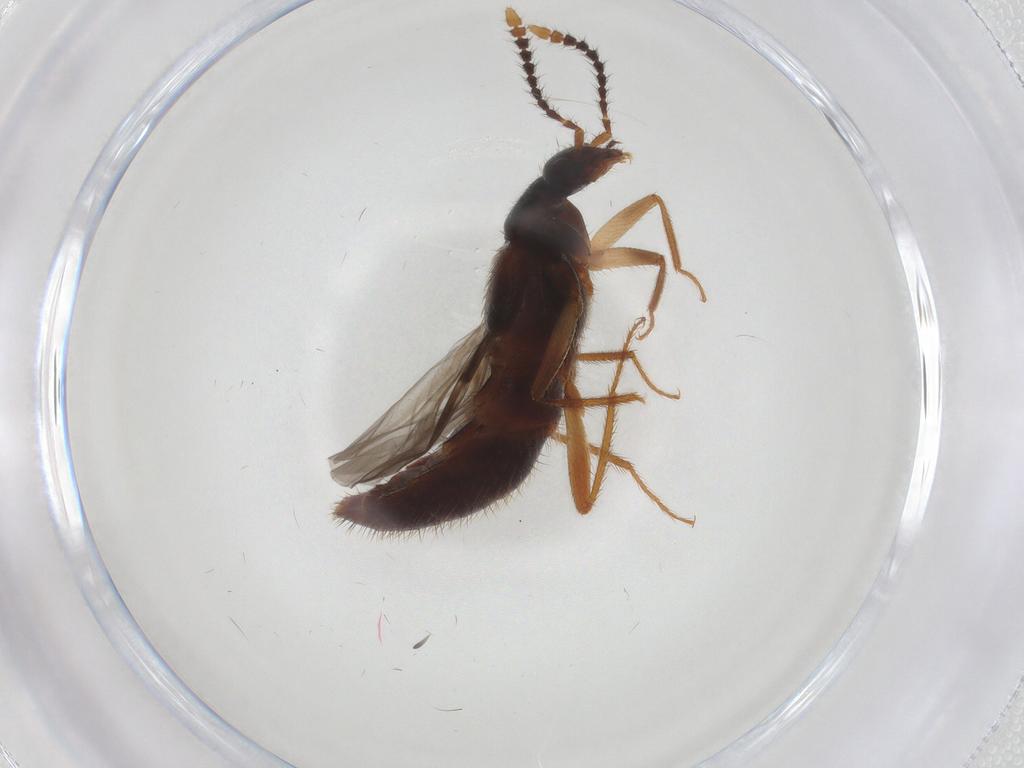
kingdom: Animalia
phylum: Arthropoda
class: Insecta
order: Coleoptera
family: Staphylinidae
